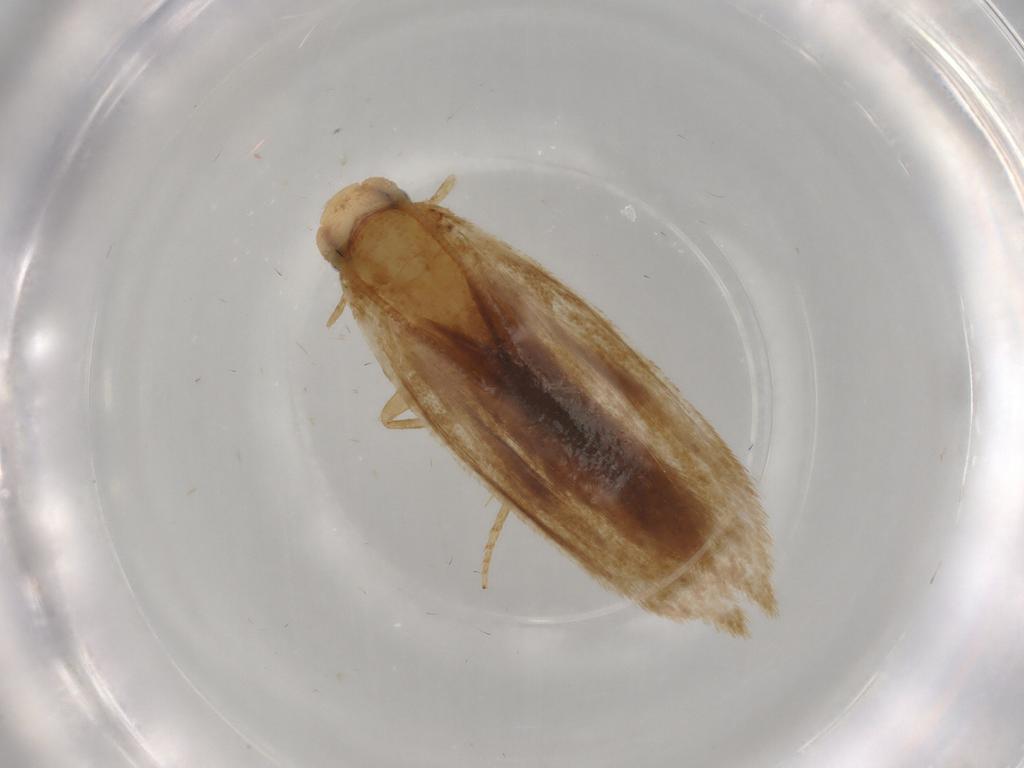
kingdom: Animalia
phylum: Arthropoda
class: Insecta
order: Lepidoptera
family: Tineidae
